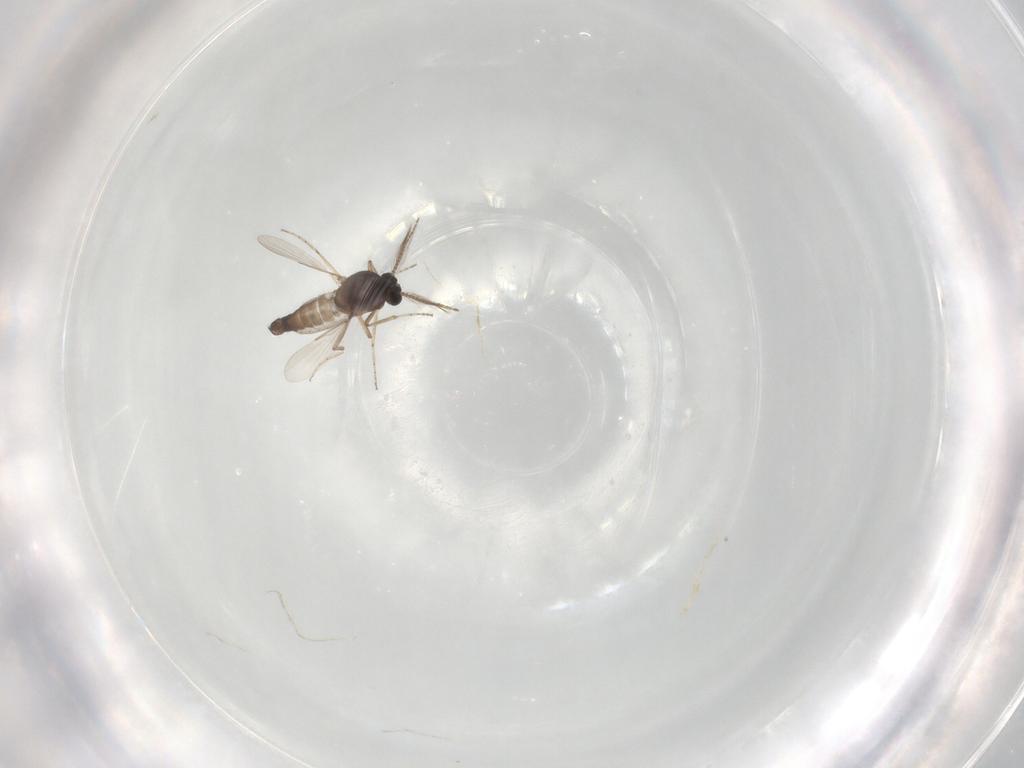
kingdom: Animalia
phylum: Arthropoda
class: Insecta
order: Diptera
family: Ceratopogonidae
